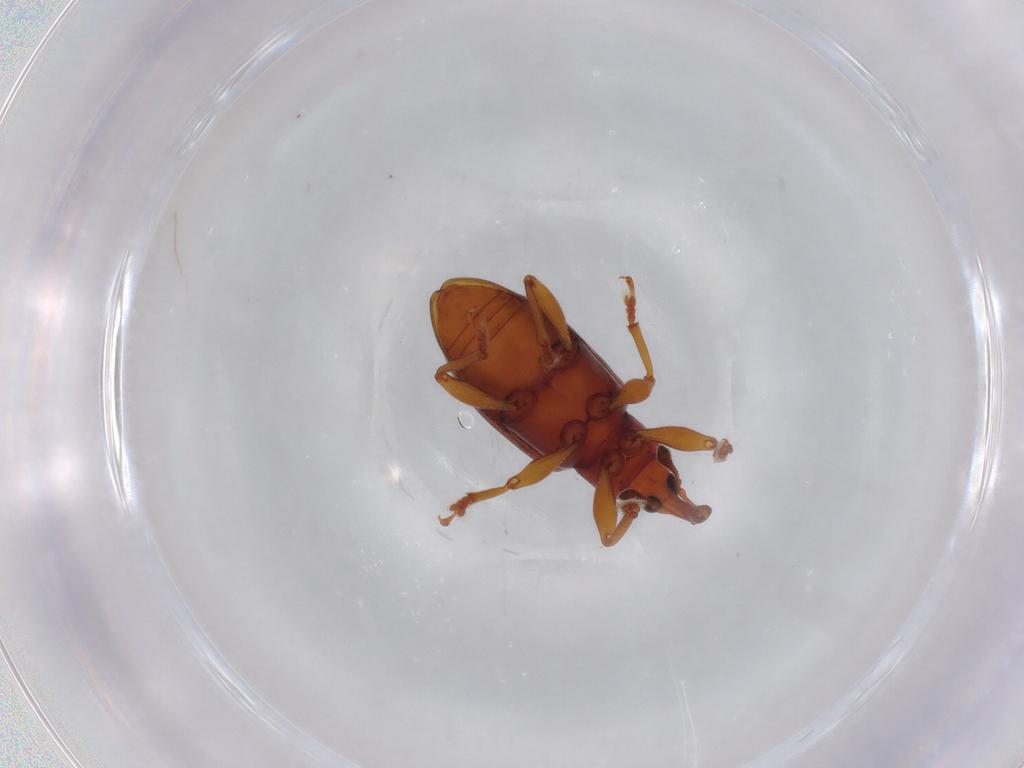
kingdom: Animalia
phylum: Arthropoda
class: Insecta
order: Coleoptera
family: Curculionidae
